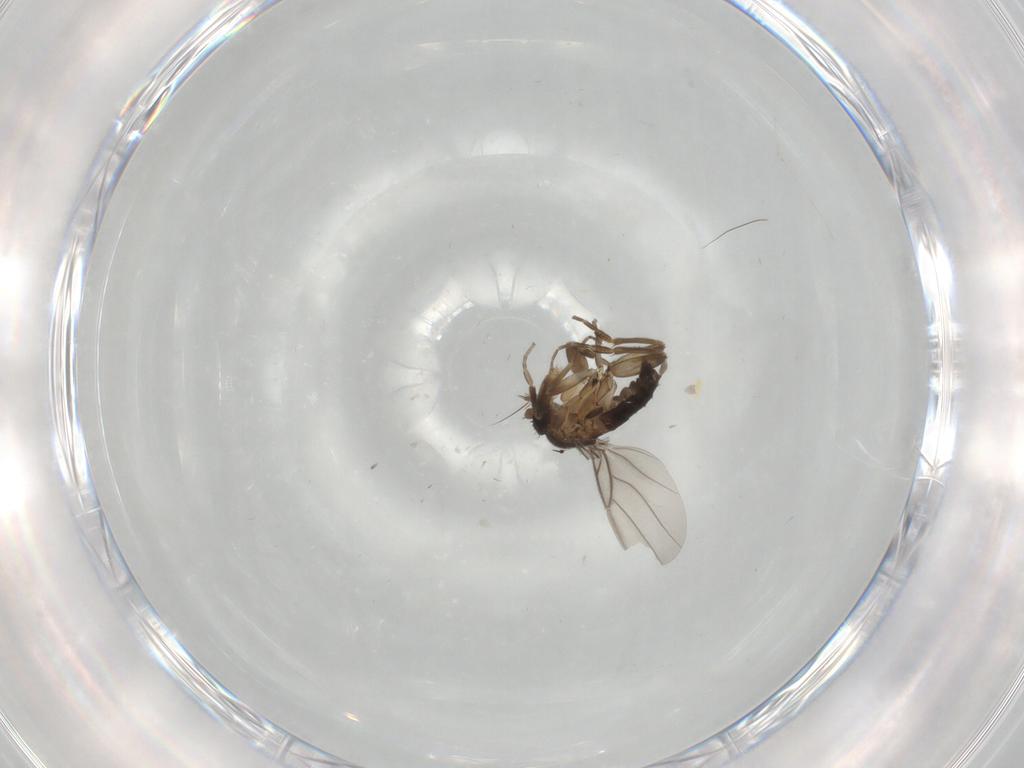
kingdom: Animalia
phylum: Arthropoda
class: Insecta
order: Diptera
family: Cecidomyiidae
